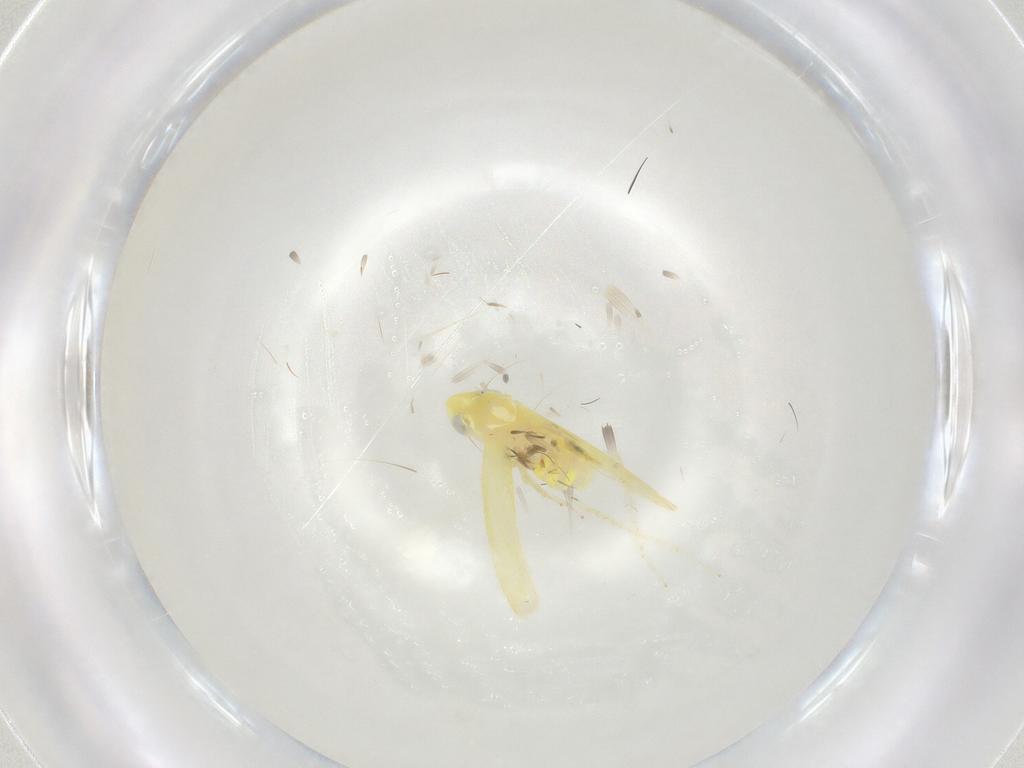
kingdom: Animalia
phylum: Arthropoda
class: Insecta
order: Hemiptera
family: Cicadellidae
